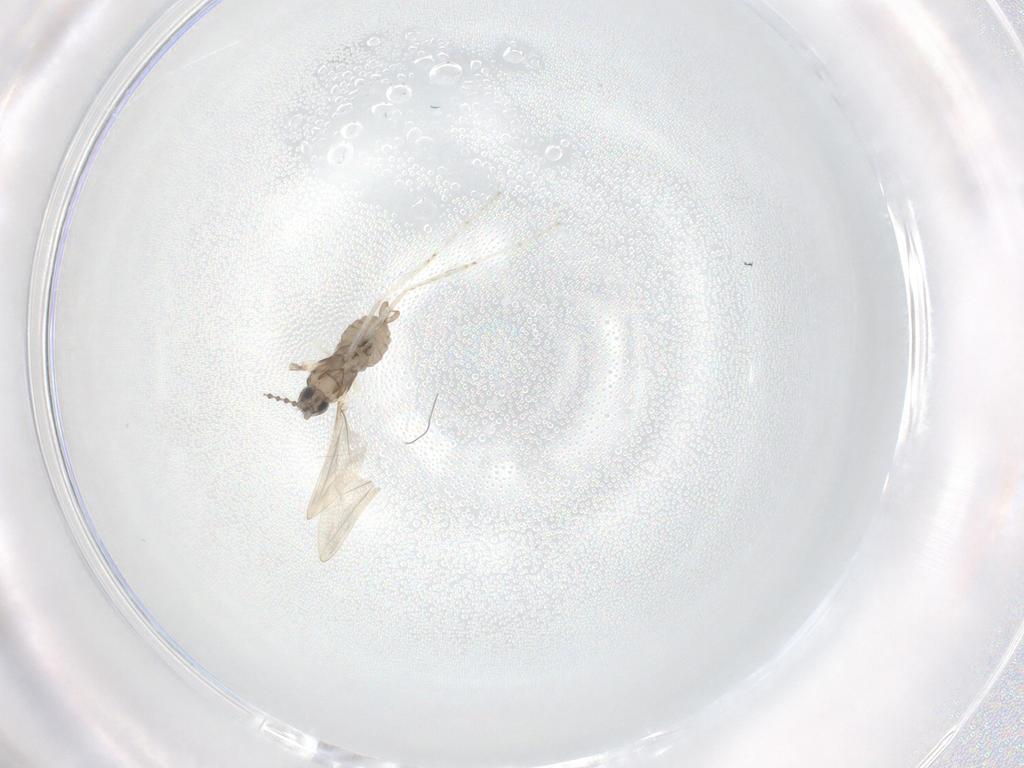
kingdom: Animalia
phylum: Arthropoda
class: Insecta
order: Diptera
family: Cecidomyiidae
